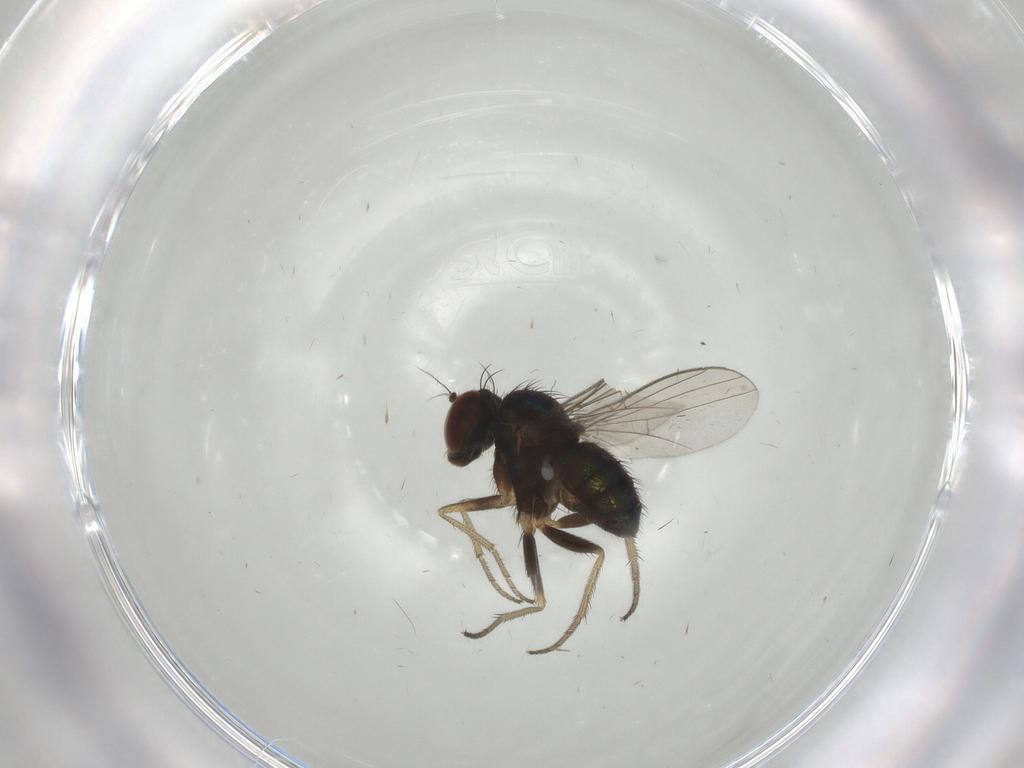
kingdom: Animalia
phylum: Arthropoda
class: Insecta
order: Diptera
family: Cecidomyiidae
